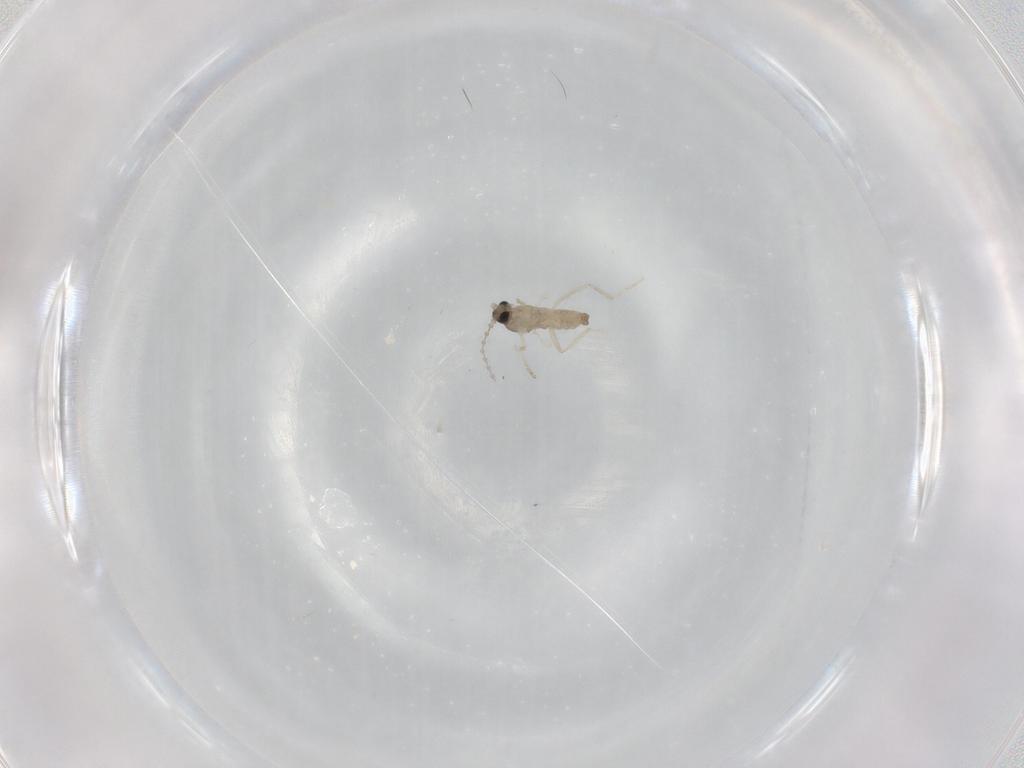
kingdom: Animalia
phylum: Arthropoda
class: Insecta
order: Diptera
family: Cecidomyiidae
